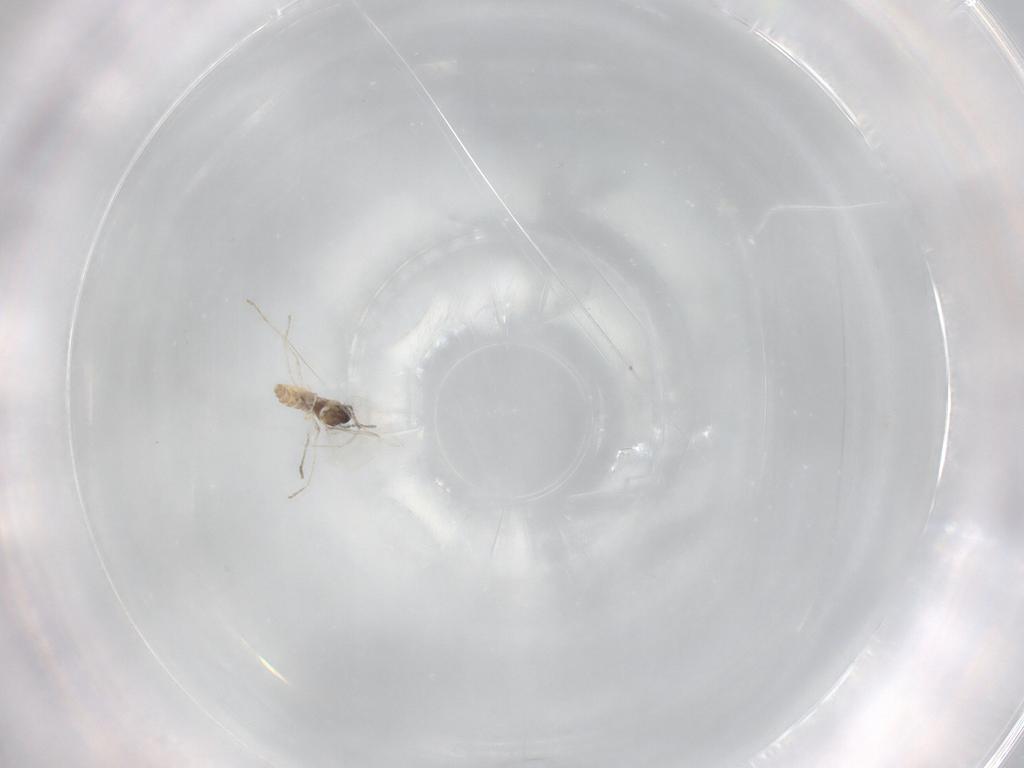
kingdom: Animalia
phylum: Arthropoda
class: Insecta
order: Diptera
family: Cecidomyiidae
